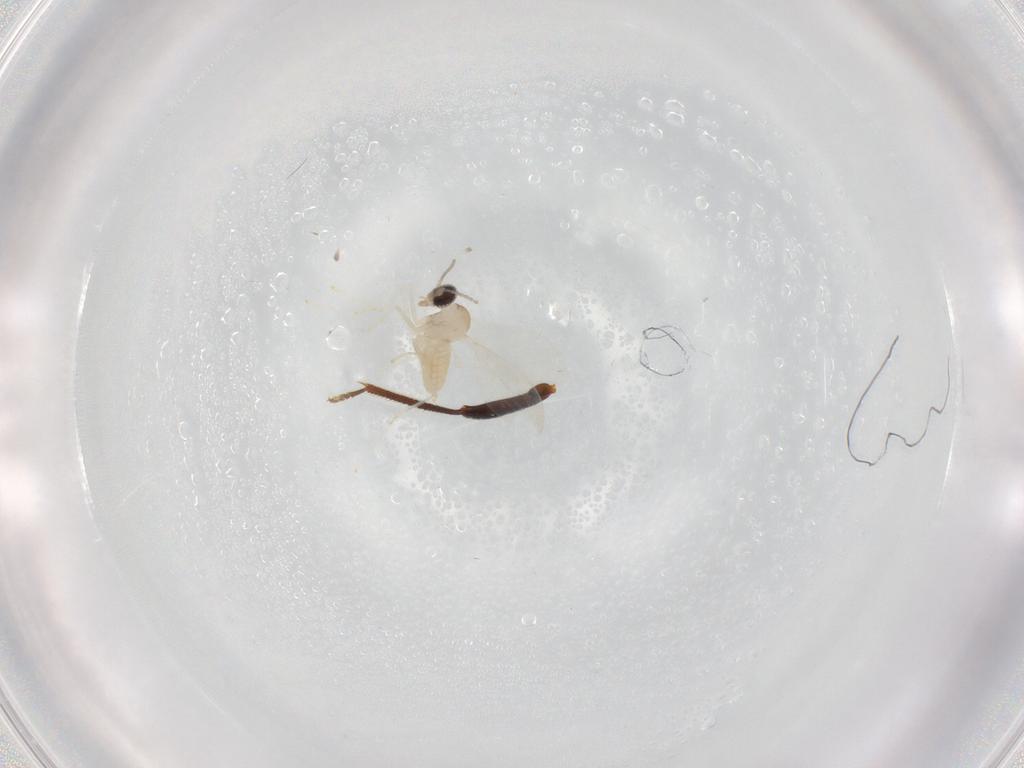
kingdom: Animalia
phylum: Arthropoda
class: Insecta
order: Diptera
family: Cecidomyiidae
